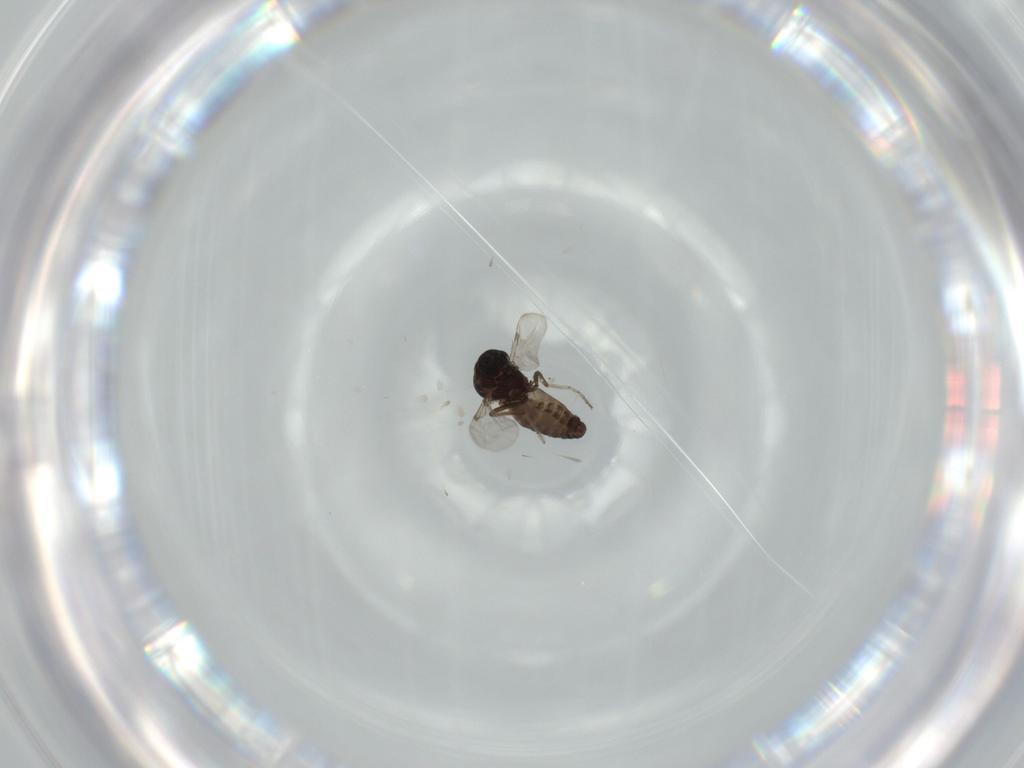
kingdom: Animalia
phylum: Arthropoda
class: Insecta
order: Diptera
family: Ceratopogonidae
